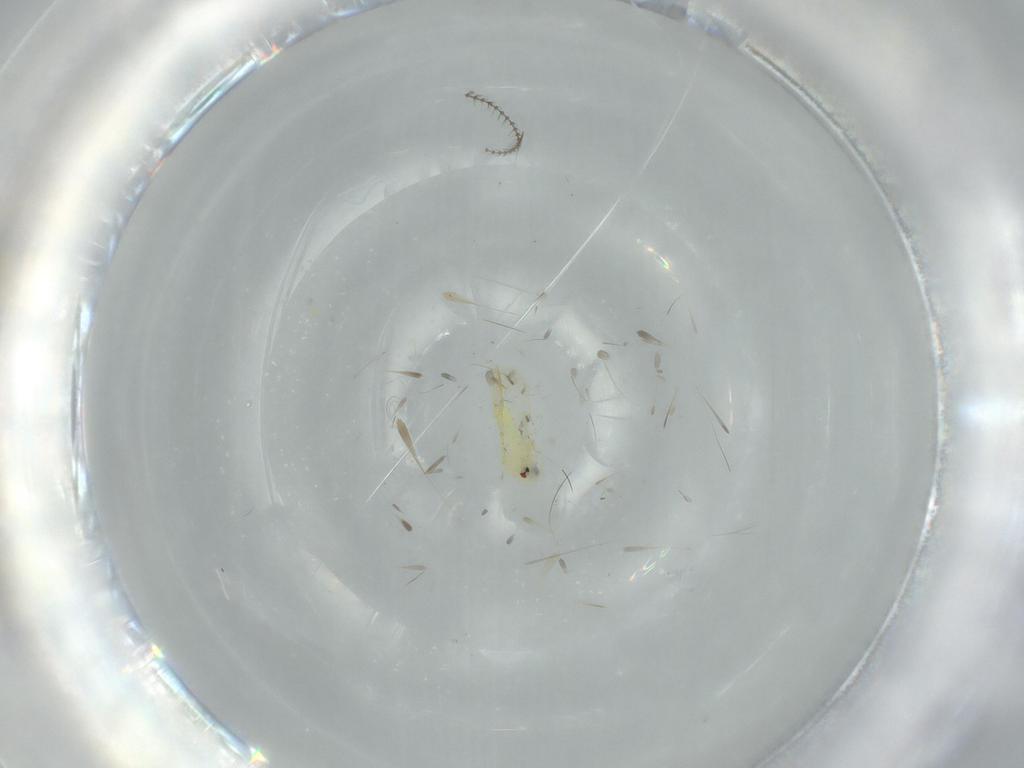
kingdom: Animalia
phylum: Arthropoda
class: Insecta
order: Hemiptera
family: Aleyrodidae
